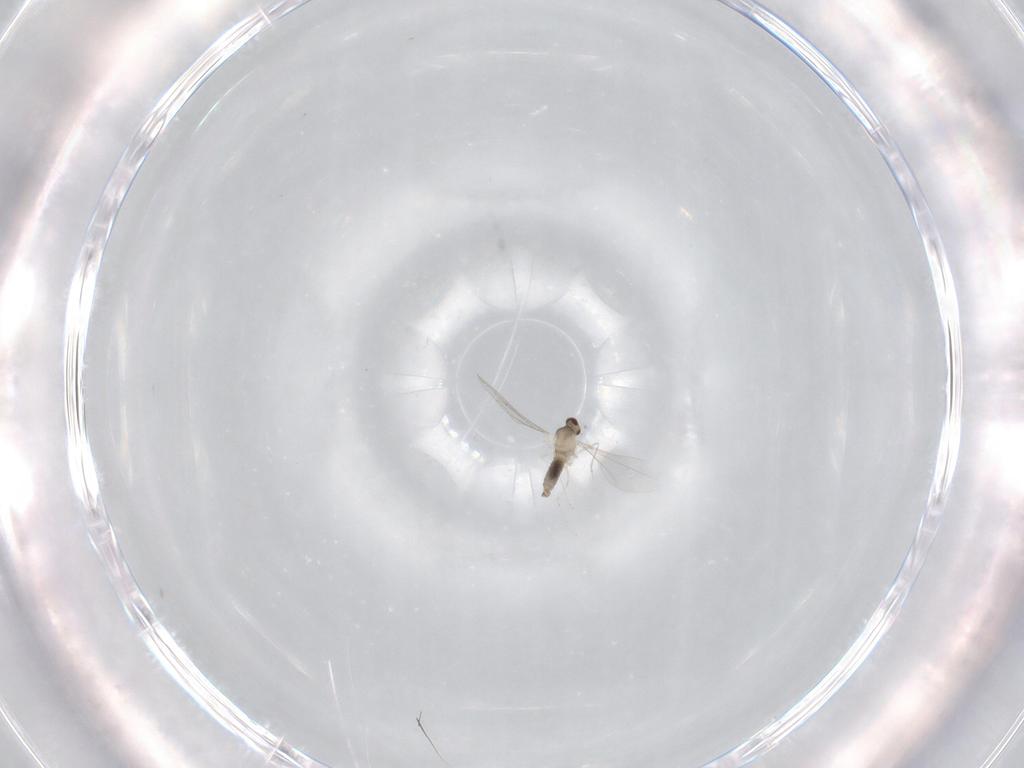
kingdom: Animalia
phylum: Arthropoda
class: Insecta
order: Diptera
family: Cecidomyiidae
